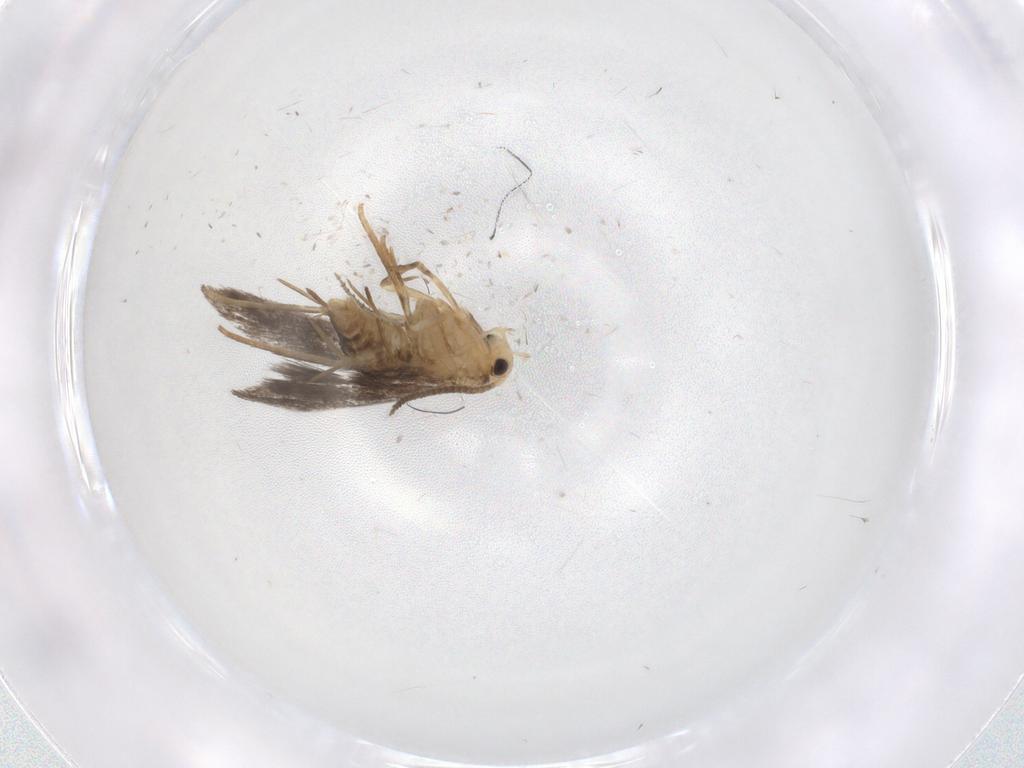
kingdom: Animalia
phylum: Arthropoda
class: Insecta
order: Lepidoptera
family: Schreckensteiniidae
